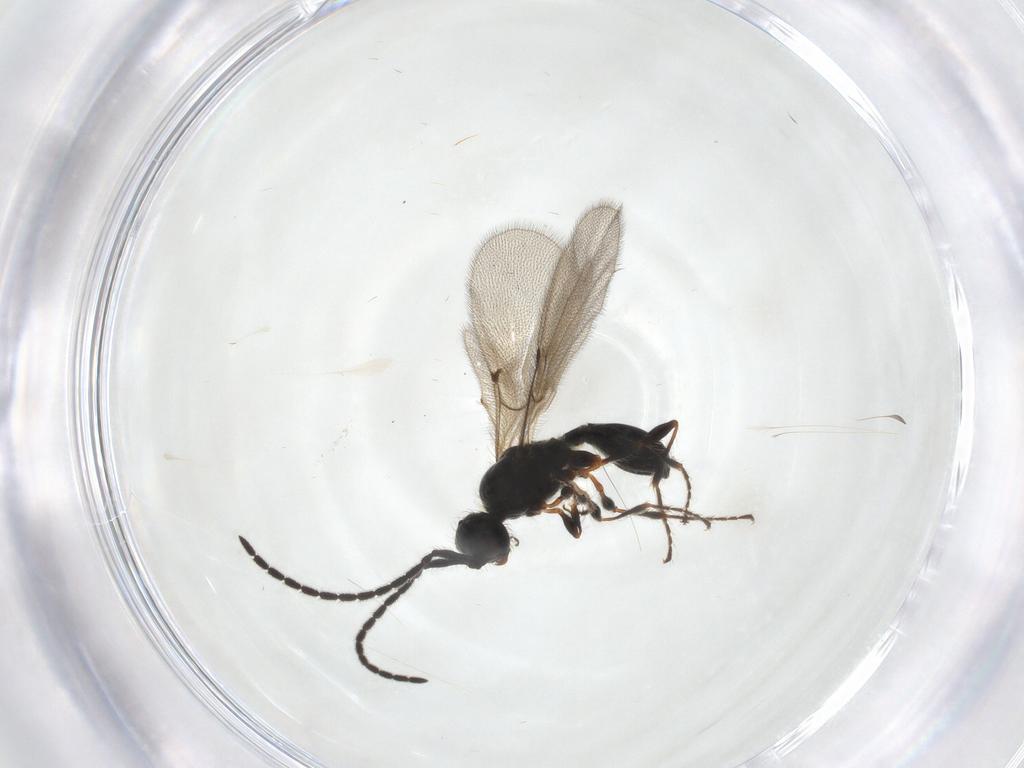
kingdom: Animalia
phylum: Arthropoda
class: Insecta
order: Hymenoptera
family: Diapriidae
